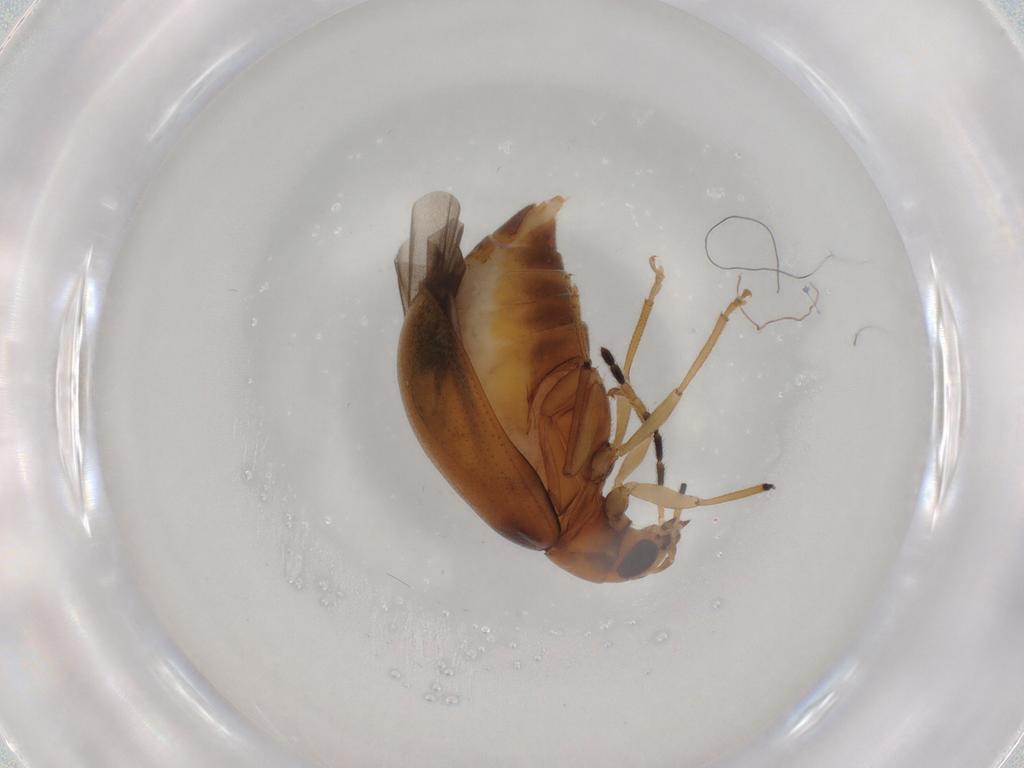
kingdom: Animalia
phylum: Arthropoda
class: Insecta
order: Coleoptera
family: Chrysomelidae
